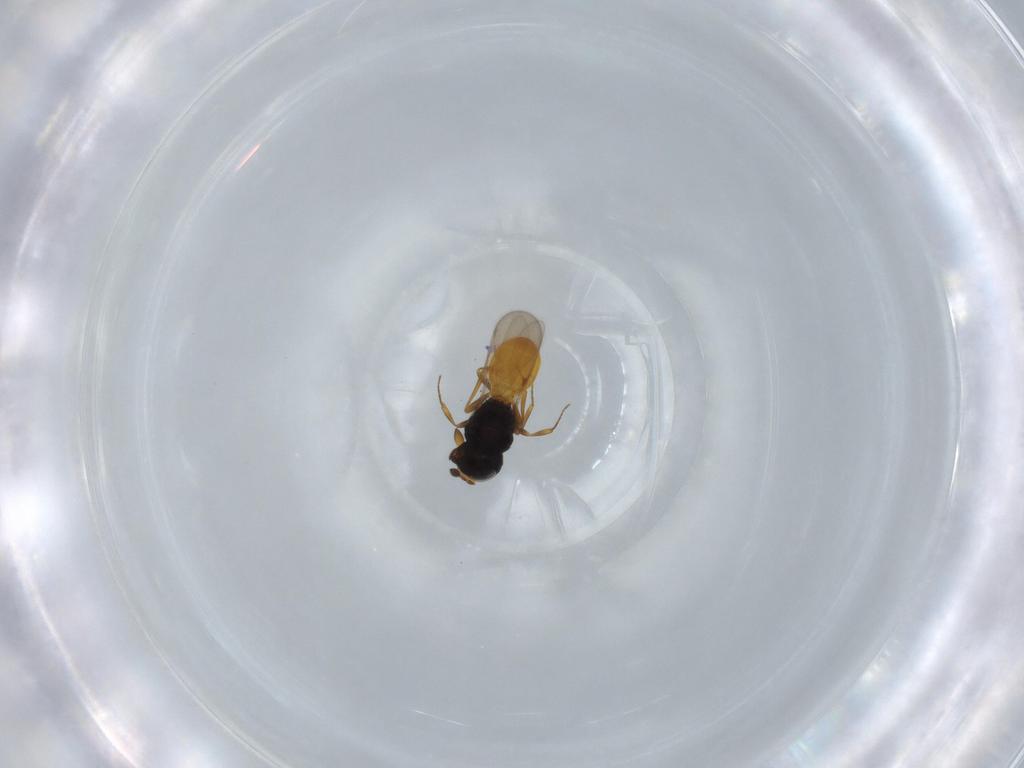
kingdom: Animalia
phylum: Arthropoda
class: Insecta
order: Hymenoptera
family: Scelionidae
